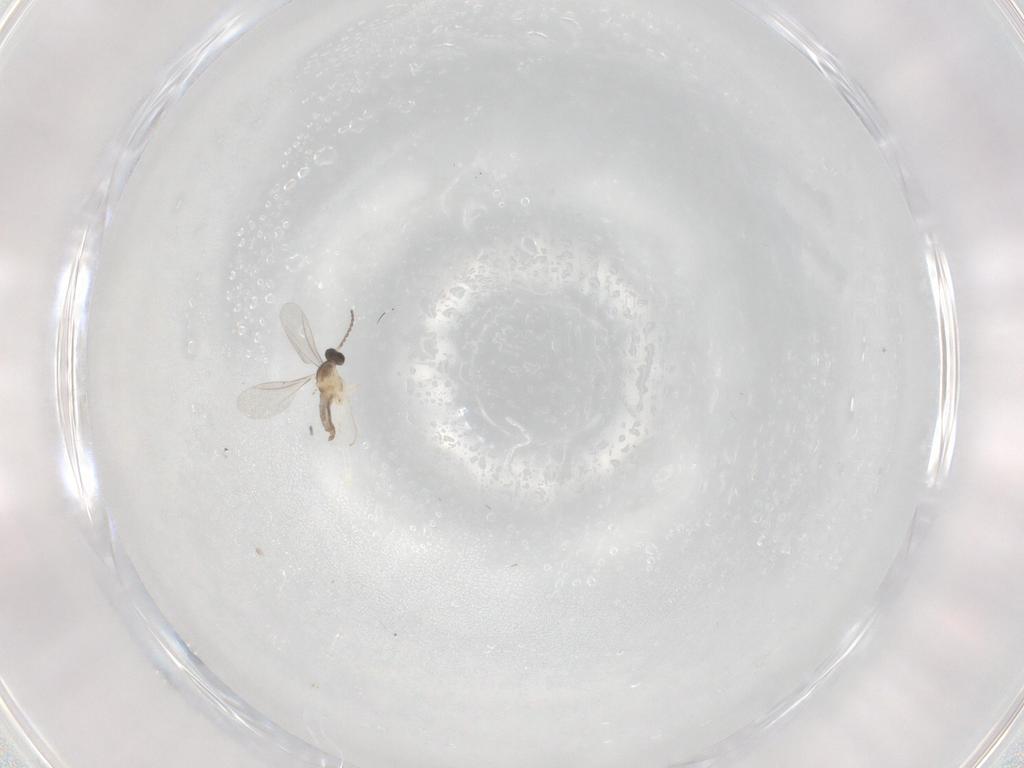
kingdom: Animalia
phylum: Arthropoda
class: Insecta
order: Diptera
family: Cecidomyiidae
